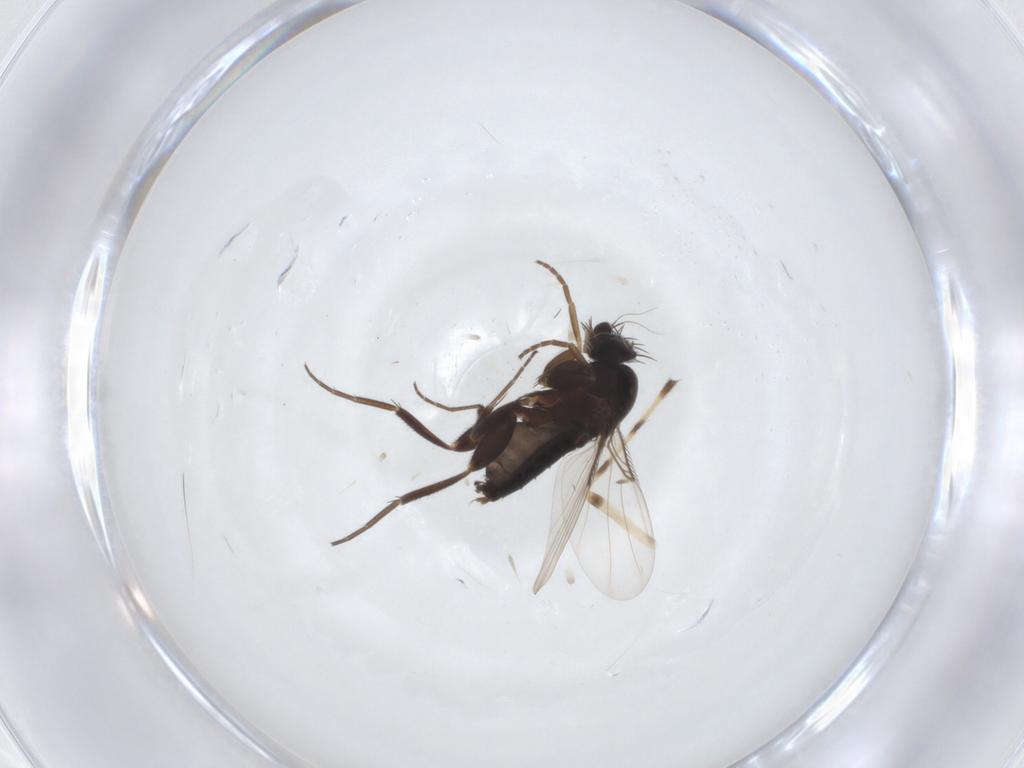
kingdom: Animalia
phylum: Arthropoda
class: Insecta
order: Diptera
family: Phoridae
